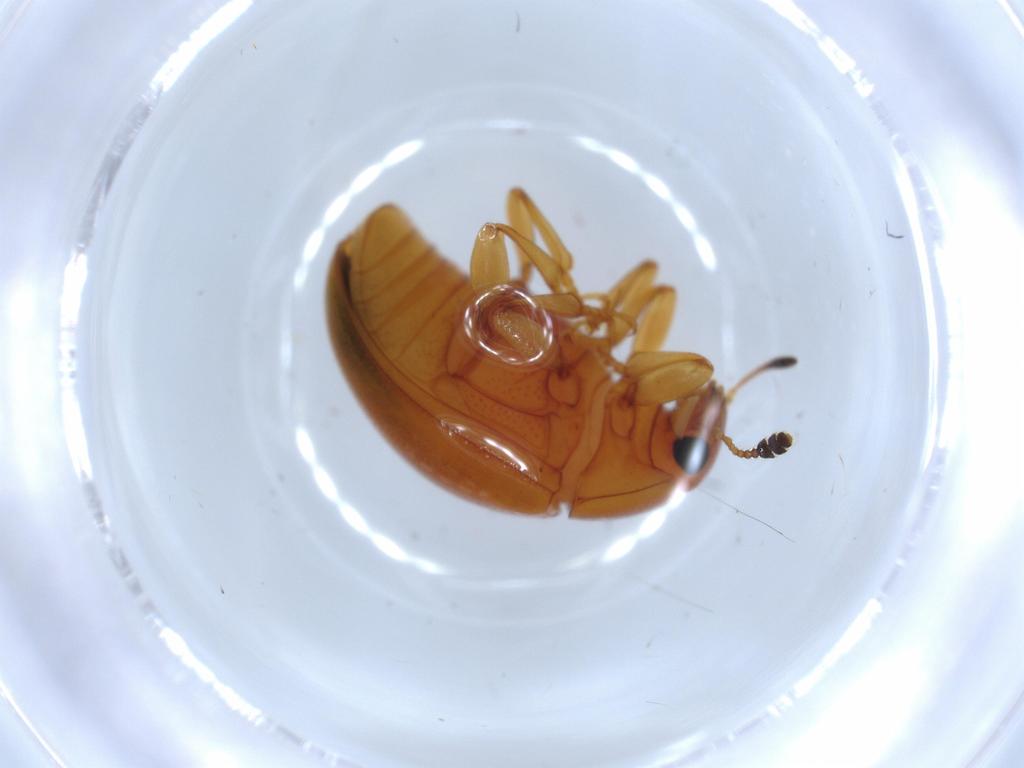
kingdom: Animalia
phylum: Arthropoda
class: Insecta
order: Coleoptera
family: Erotylidae
